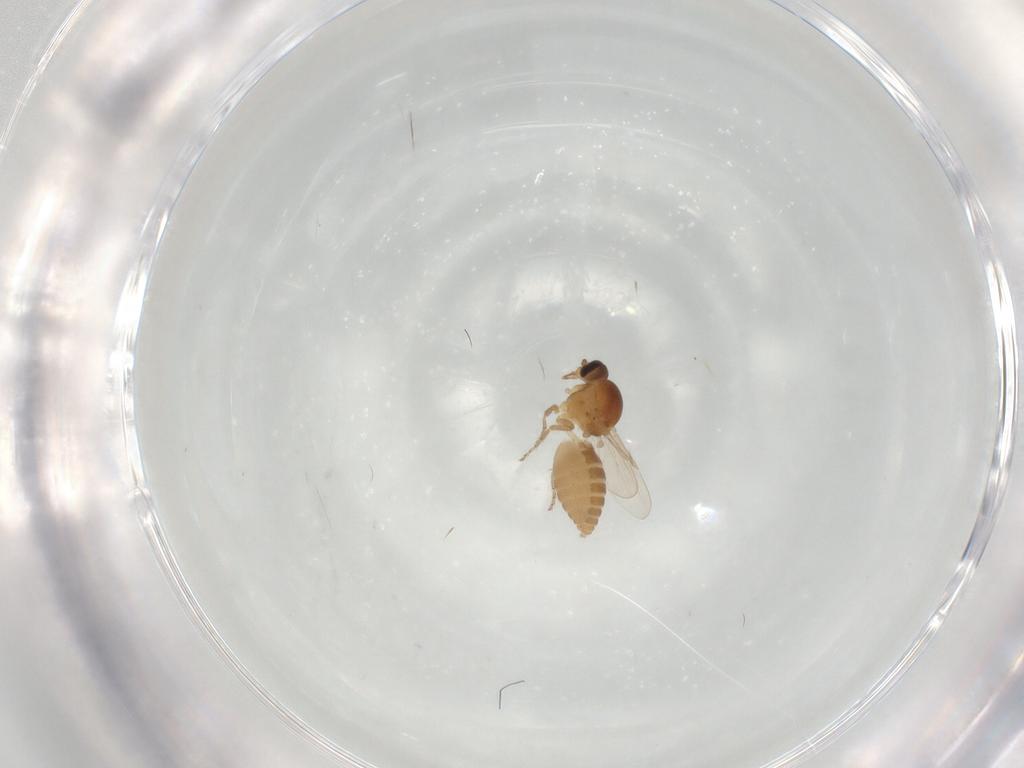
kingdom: Animalia
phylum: Arthropoda
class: Insecta
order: Diptera
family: Ceratopogonidae
